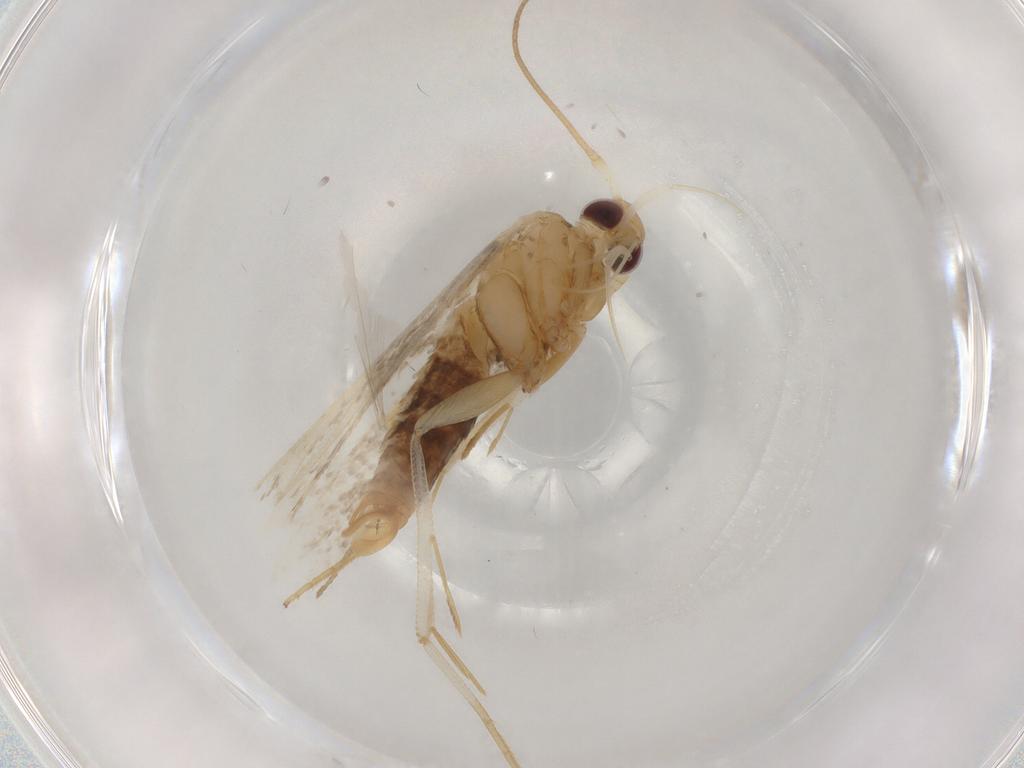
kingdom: Animalia
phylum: Arthropoda
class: Insecta
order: Lepidoptera
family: Cosmopterigidae
